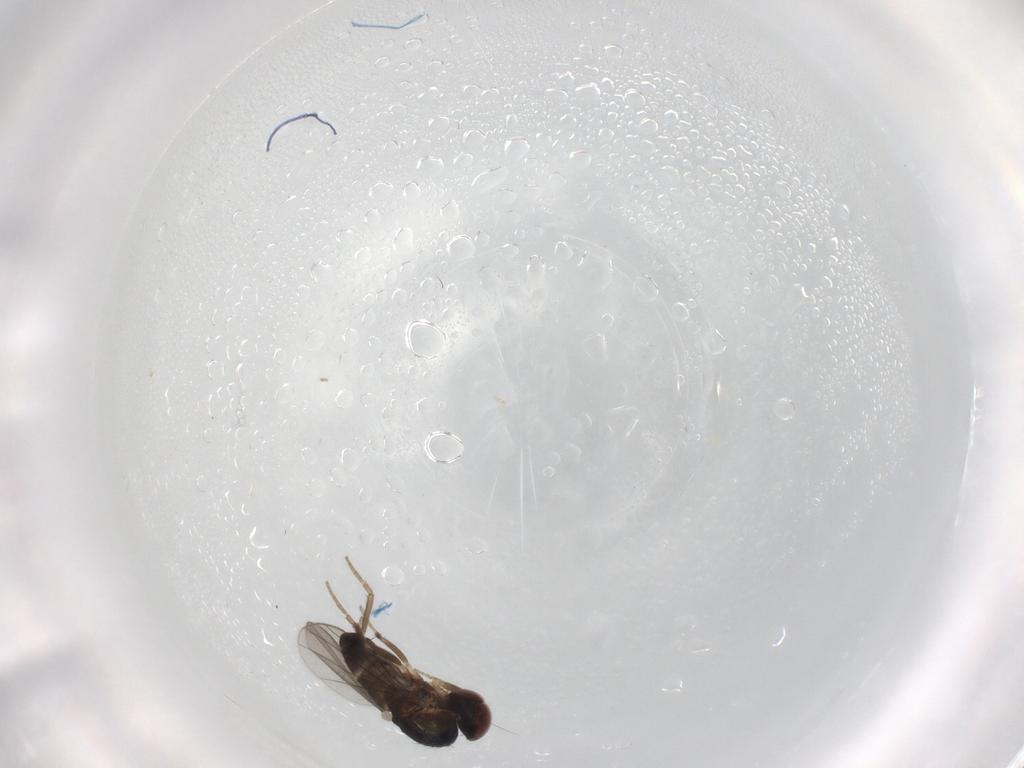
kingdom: Animalia
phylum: Arthropoda
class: Insecta
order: Diptera
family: Dolichopodidae
